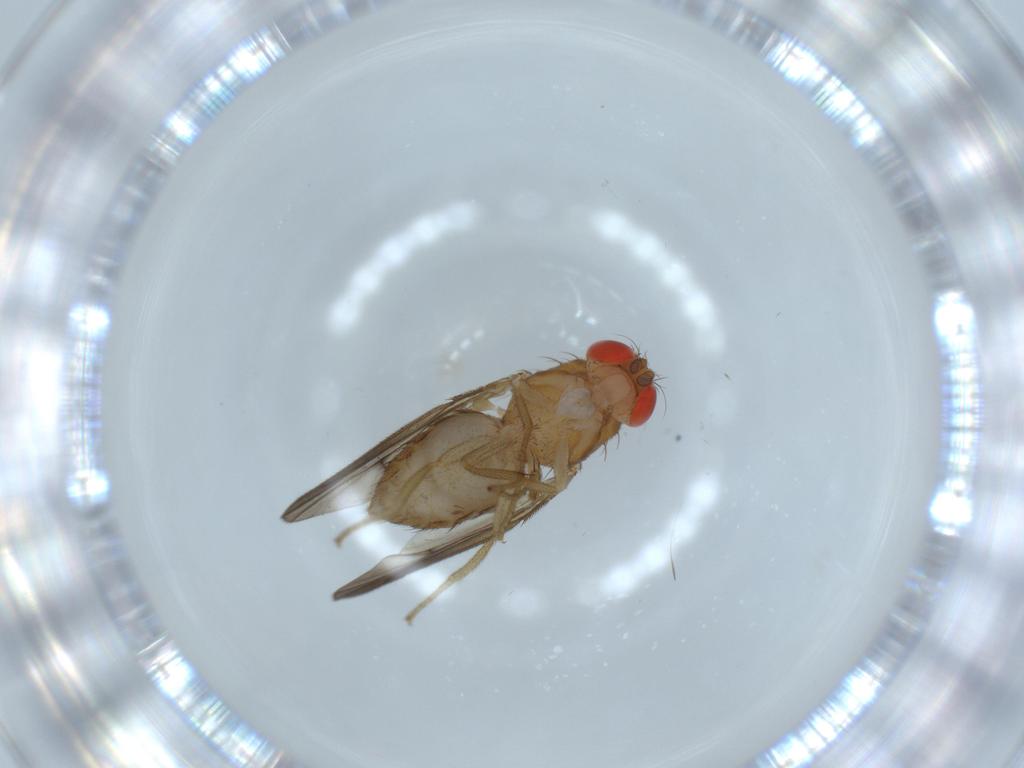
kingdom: Animalia
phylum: Arthropoda
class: Insecta
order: Diptera
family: Drosophilidae
